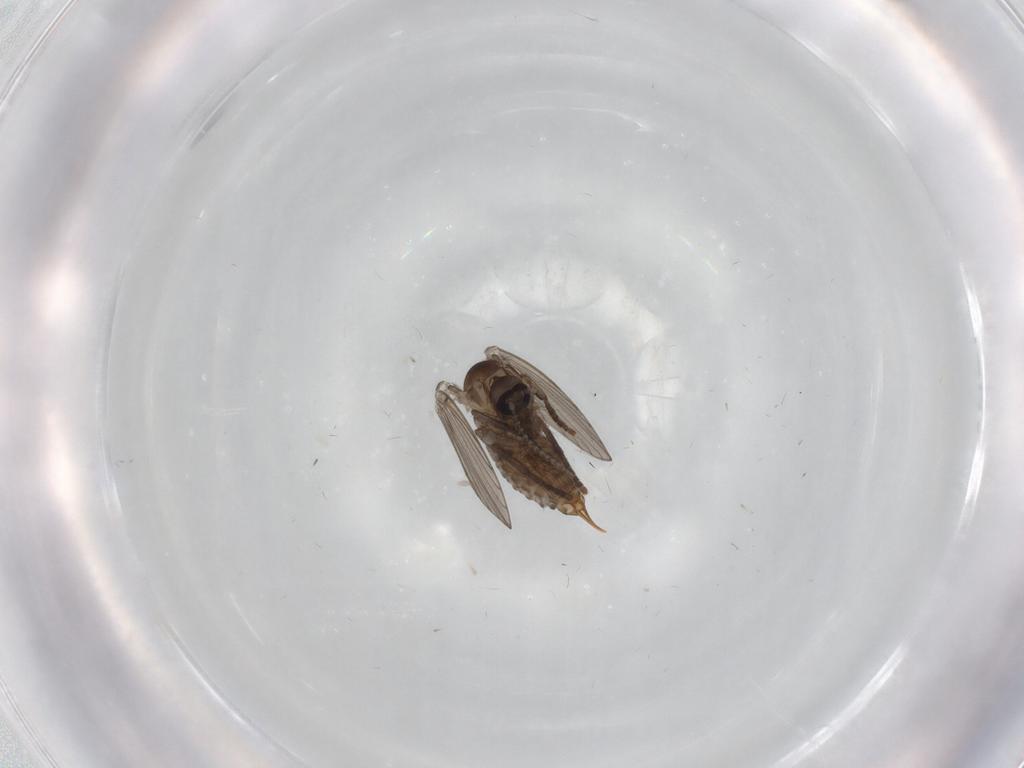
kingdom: Animalia
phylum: Arthropoda
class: Insecta
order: Diptera
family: Psychodidae
